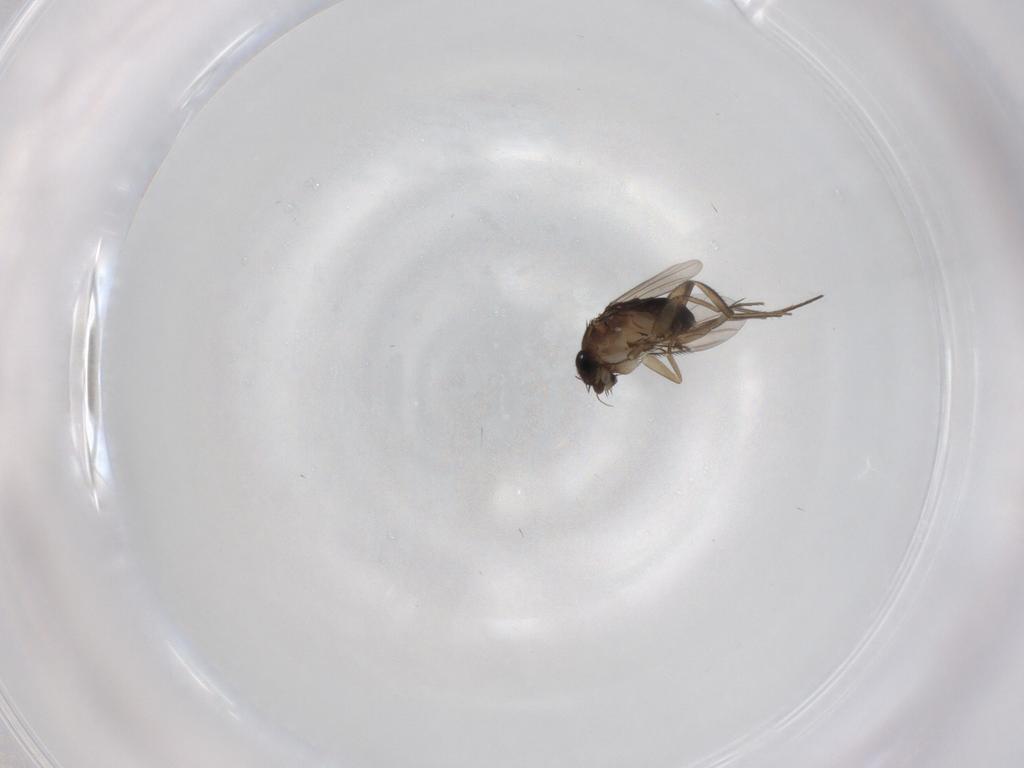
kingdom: Animalia
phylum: Arthropoda
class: Insecta
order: Diptera
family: Phoridae
